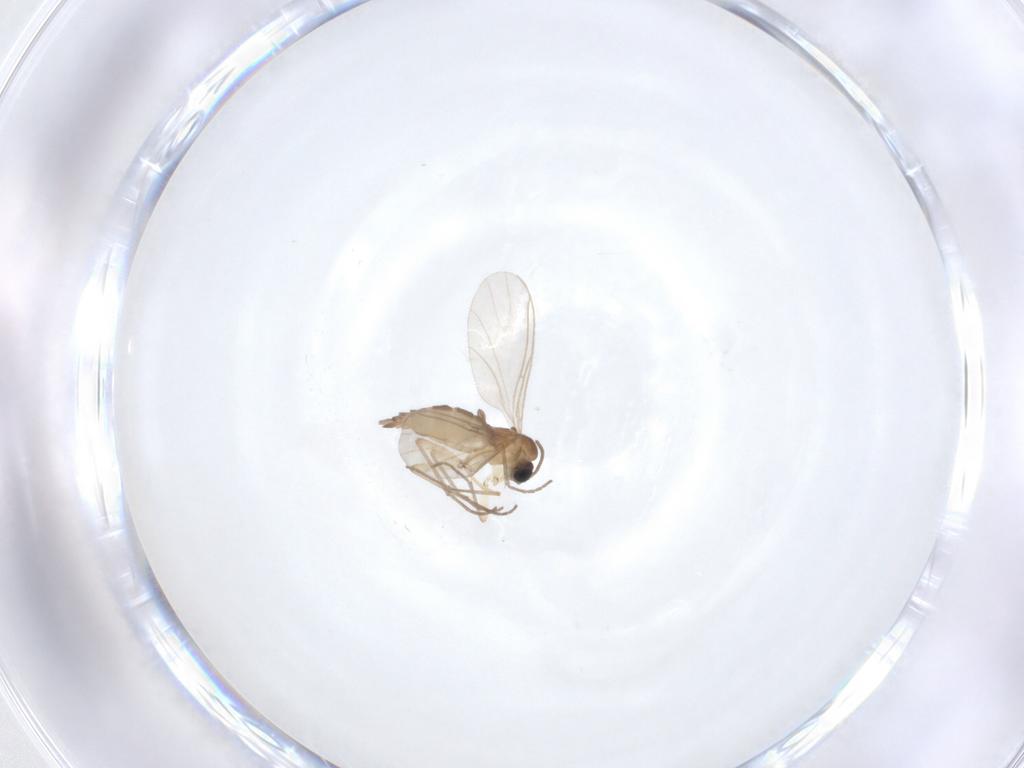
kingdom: Animalia
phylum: Arthropoda
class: Insecta
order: Diptera
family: Sciaridae
